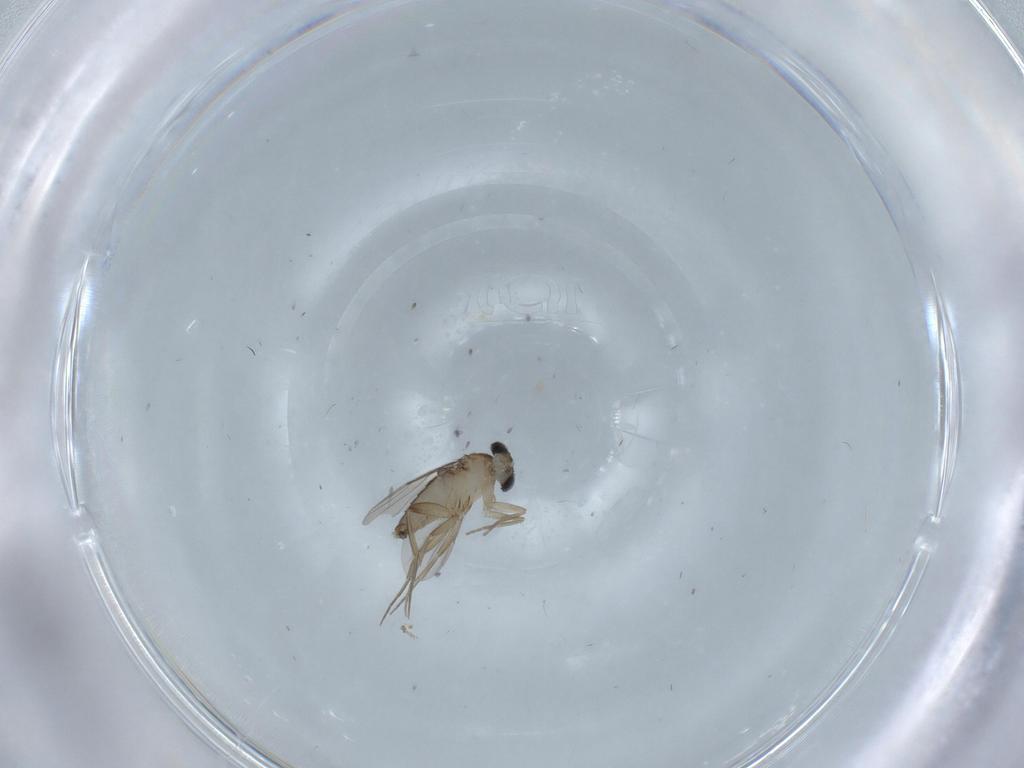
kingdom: Animalia
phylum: Arthropoda
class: Insecta
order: Diptera
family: Phoridae
